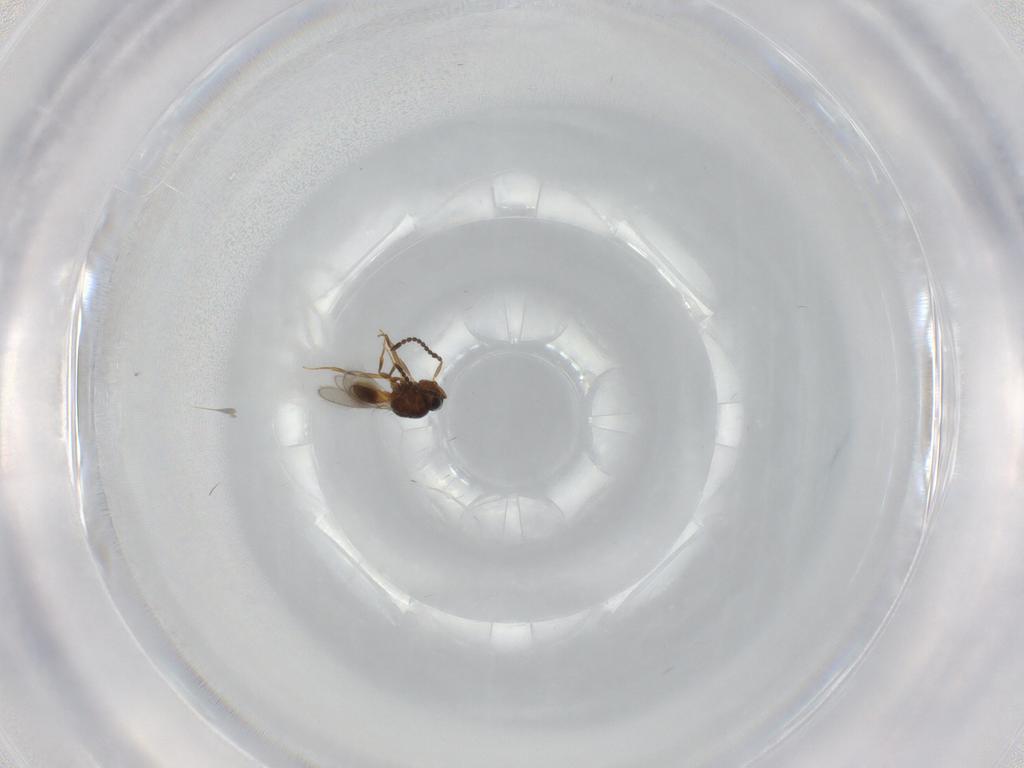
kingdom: Animalia
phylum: Arthropoda
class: Insecta
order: Hymenoptera
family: Scelionidae
